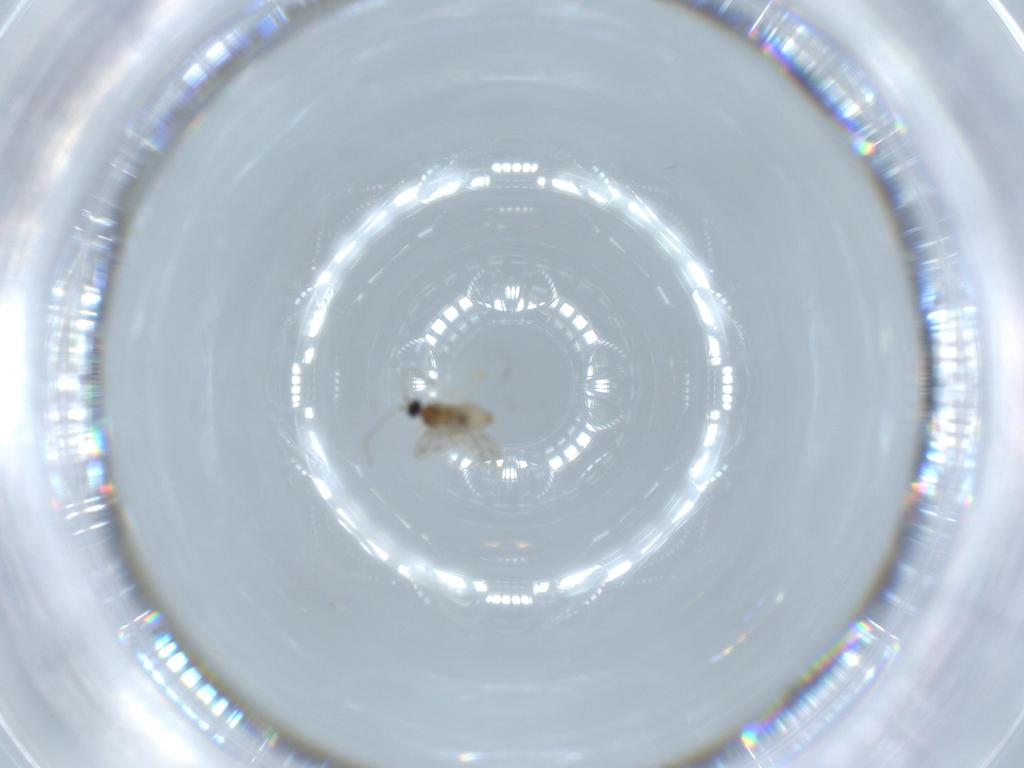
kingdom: Animalia
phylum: Arthropoda
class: Insecta
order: Diptera
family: Cecidomyiidae
